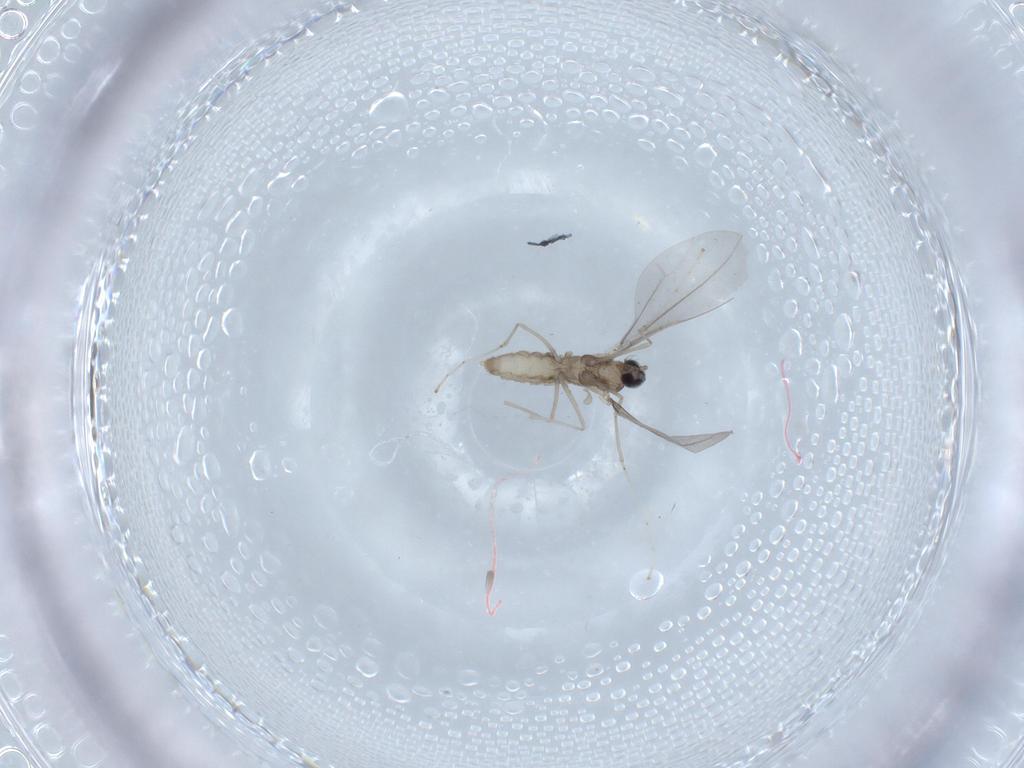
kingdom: Animalia
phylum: Arthropoda
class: Insecta
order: Diptera
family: Cecidomyiidae
